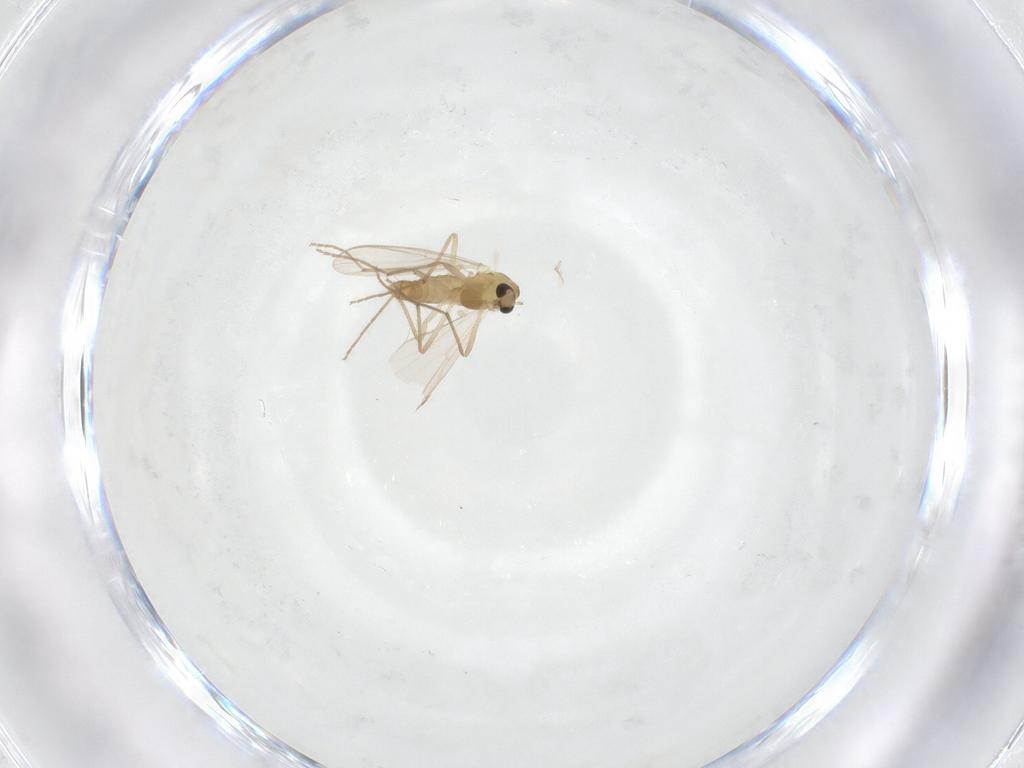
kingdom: Animalia
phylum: Arthropoda
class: Insecta
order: Diptera
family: Chironomidae
